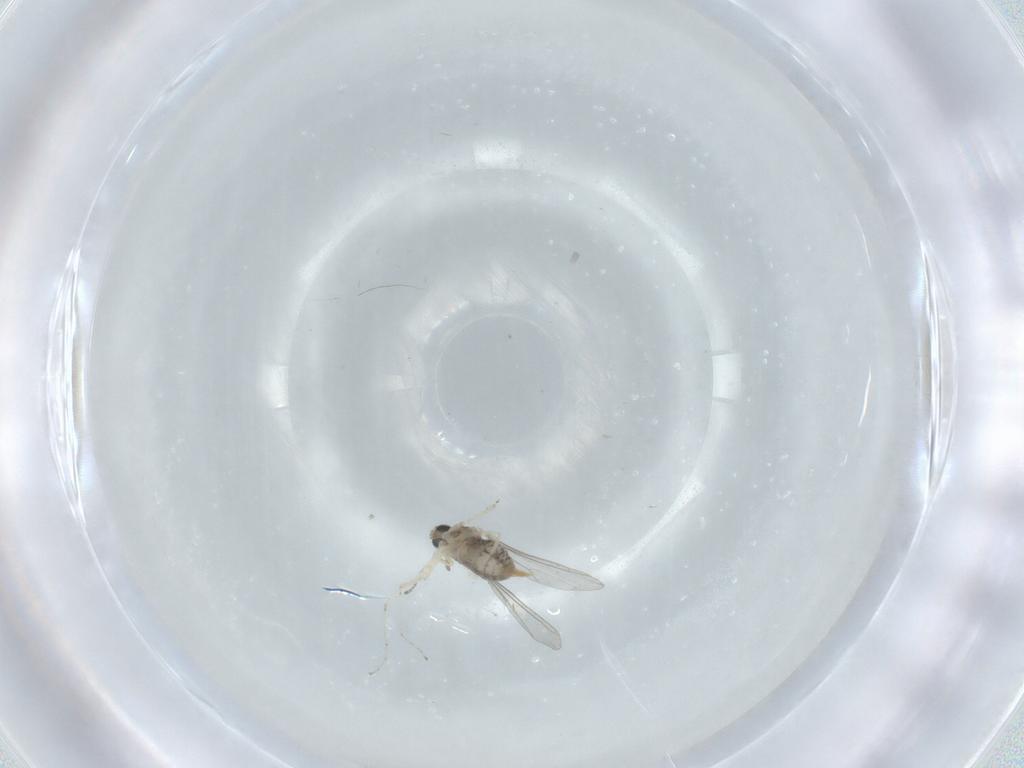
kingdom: Animalia
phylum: Arthropoda
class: Insecta
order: Diptera
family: Cecidomyiidae
